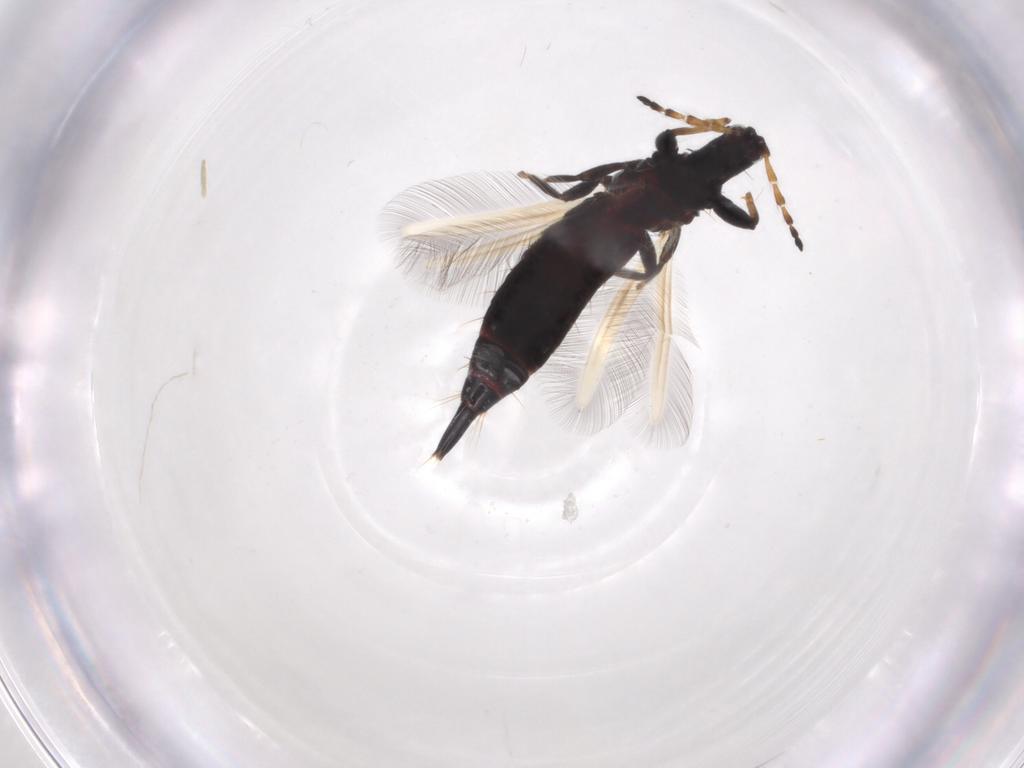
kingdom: Animalia
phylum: Arthropoda
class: Insecta
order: Thysanoptera
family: Phlaeothripidae
